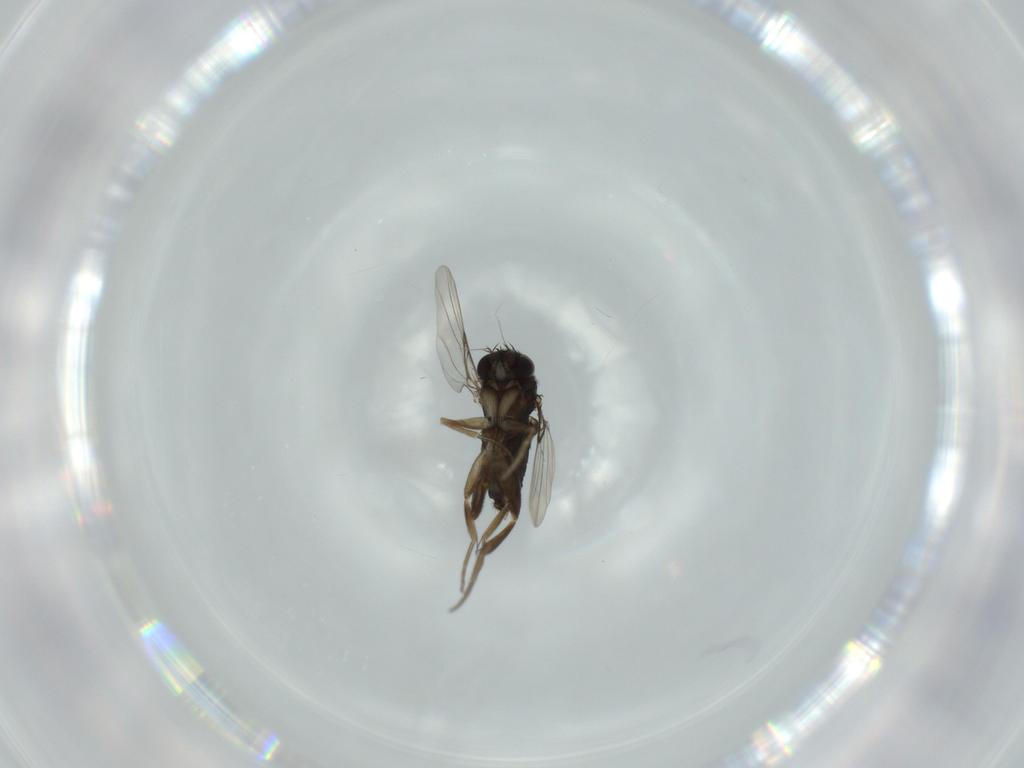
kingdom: Animalia
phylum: Arthropoda
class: Insecta
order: Diptera
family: Phoridae
